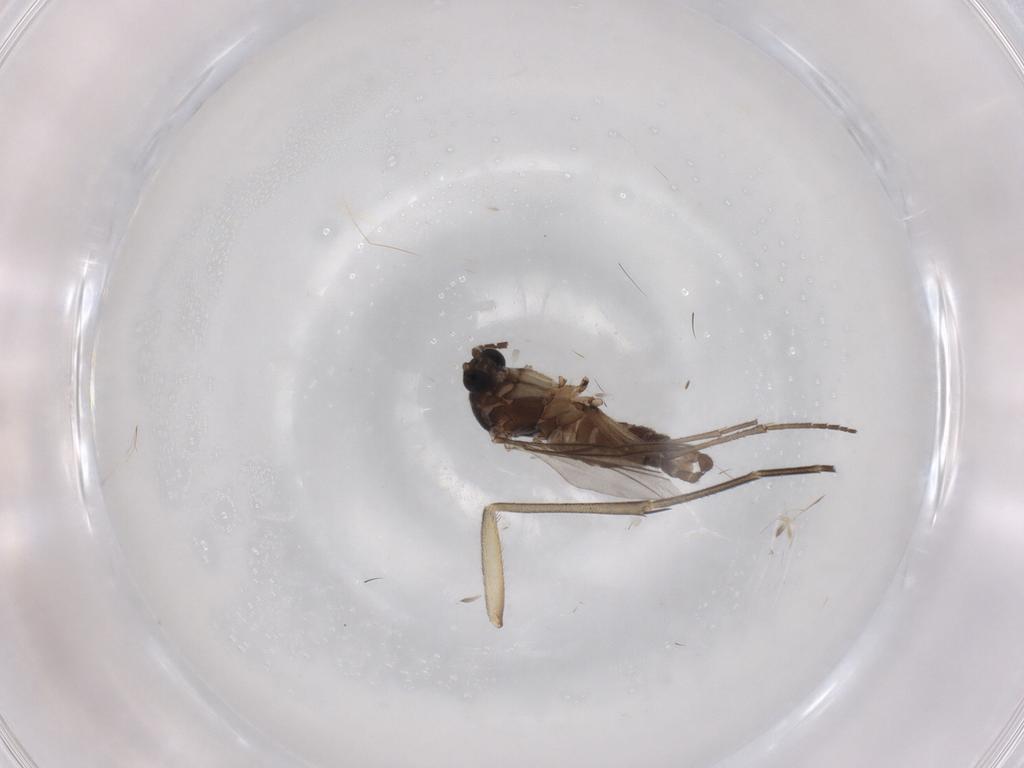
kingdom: Animalia
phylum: Arthropoda
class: Insecta
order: Diptera
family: Sciaridae
